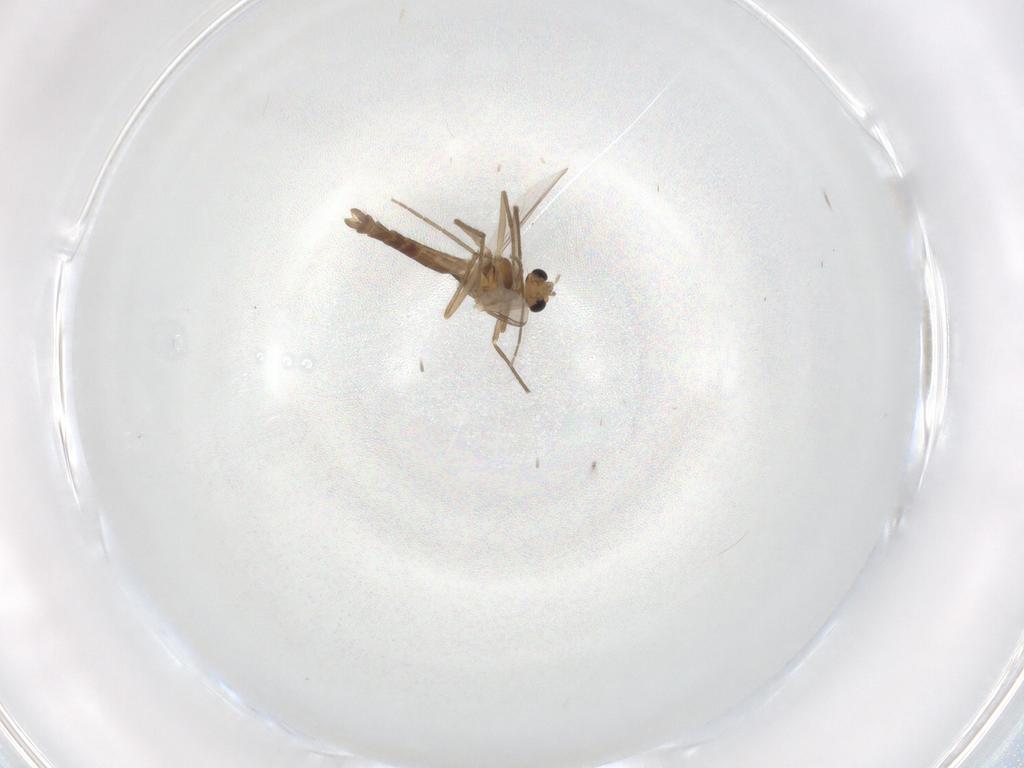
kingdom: Animalia
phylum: Arthropoda
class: Insecta
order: Diptera
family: Chironomidae
